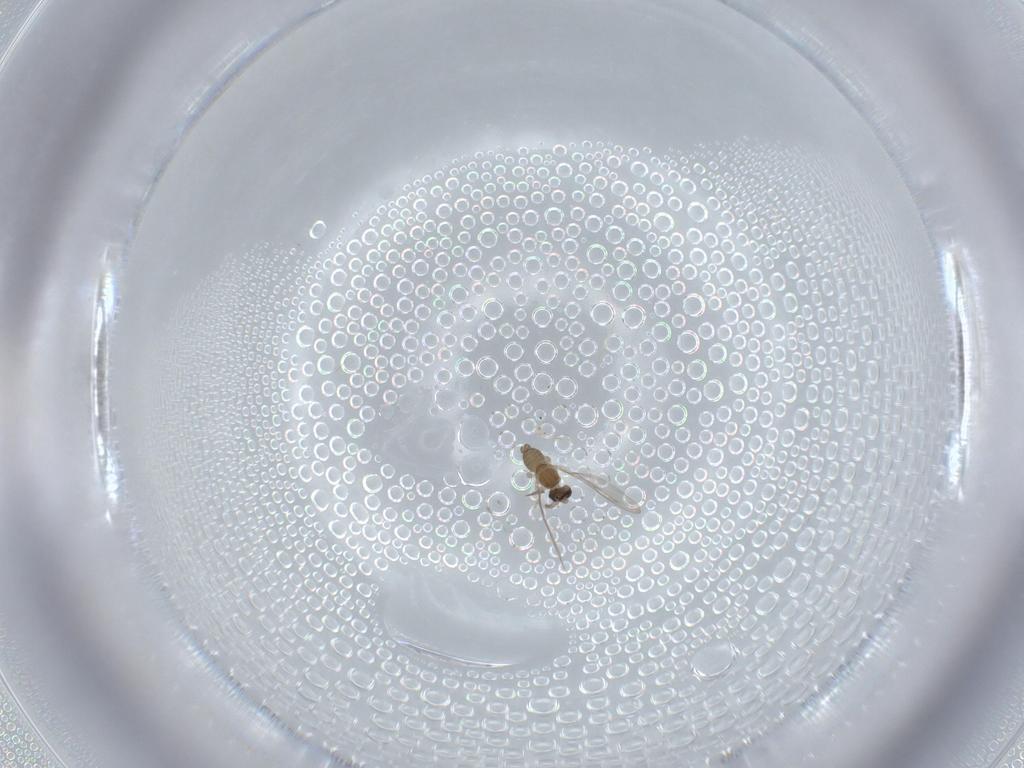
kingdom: Animalia
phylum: Arthropoda
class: Insecta
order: Diptera
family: Cecidomyiidae
